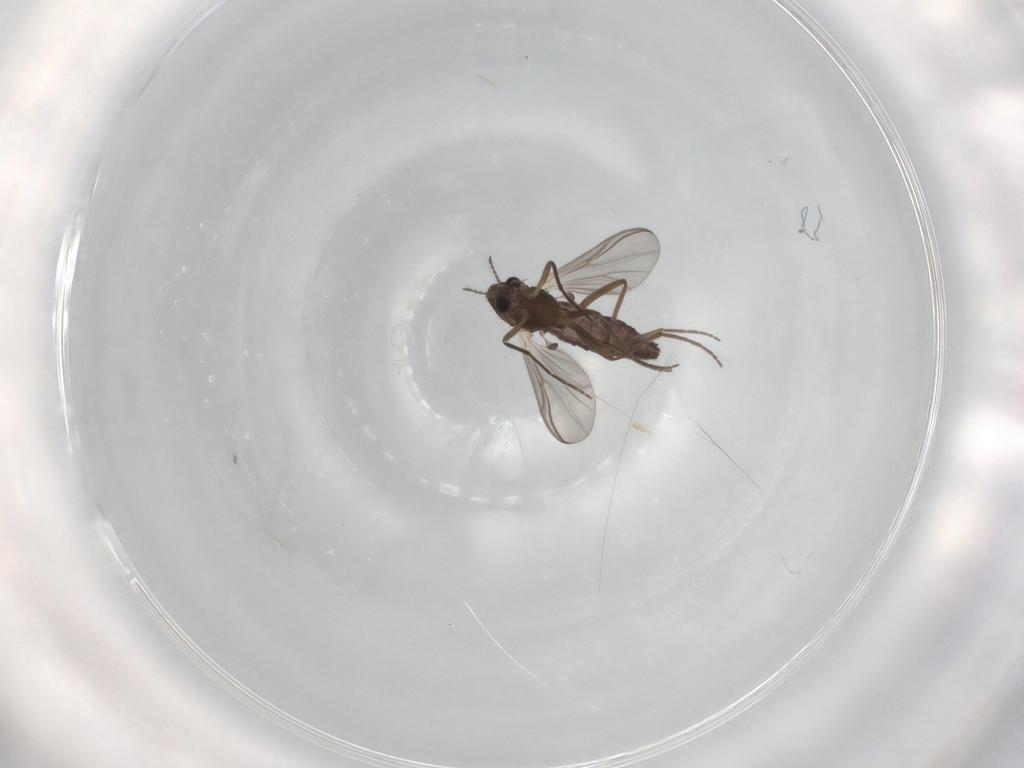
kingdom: Animalia
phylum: Arthropoda
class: Insecta
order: Diptera
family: Chironomidae
